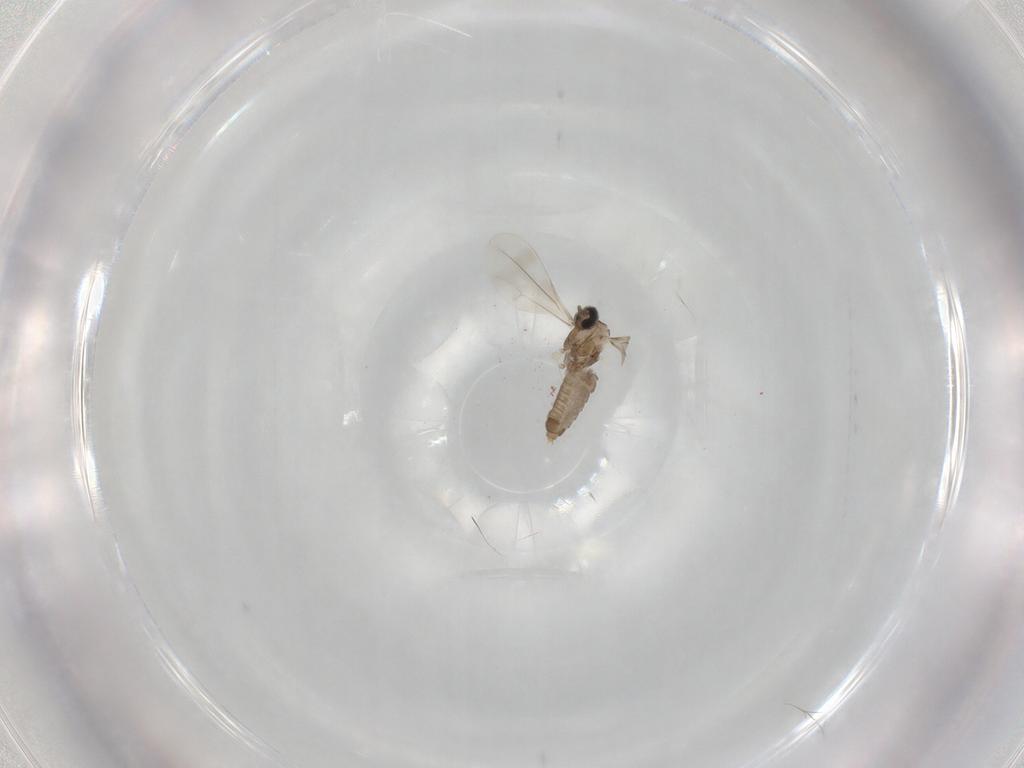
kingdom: Animalia
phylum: Arthropoda
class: Insecta
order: Diptera
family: Cecidomyiidae
